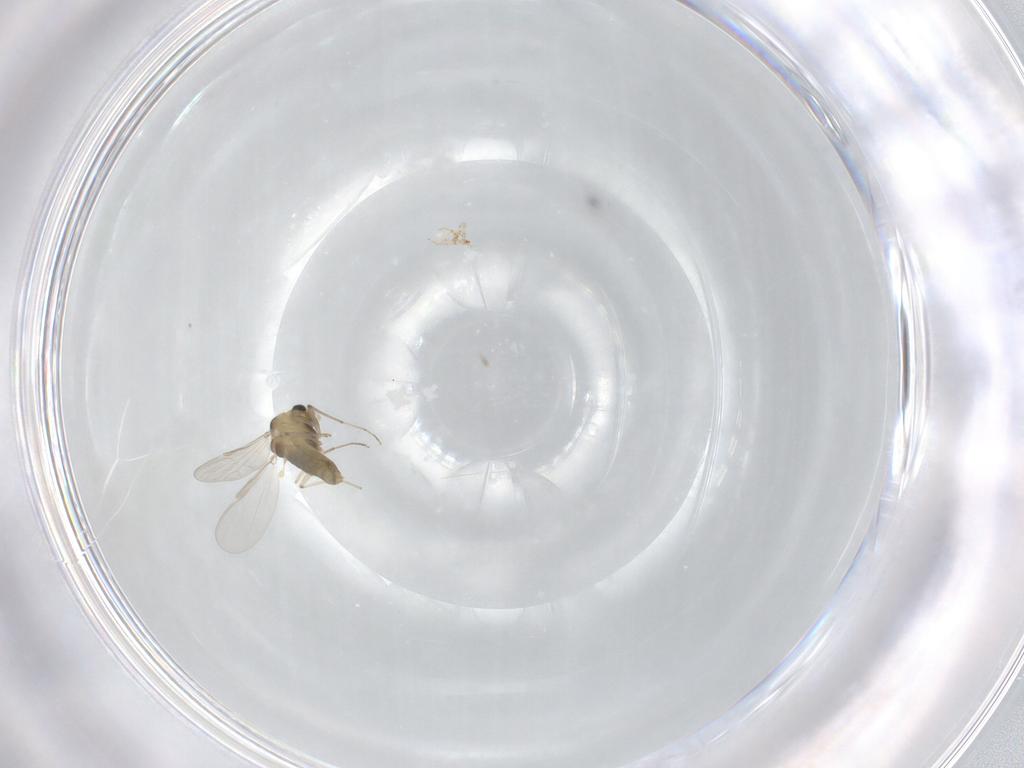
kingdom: Animalia
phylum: Arthropoda
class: Insecta
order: Diptera
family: Chironomidae
